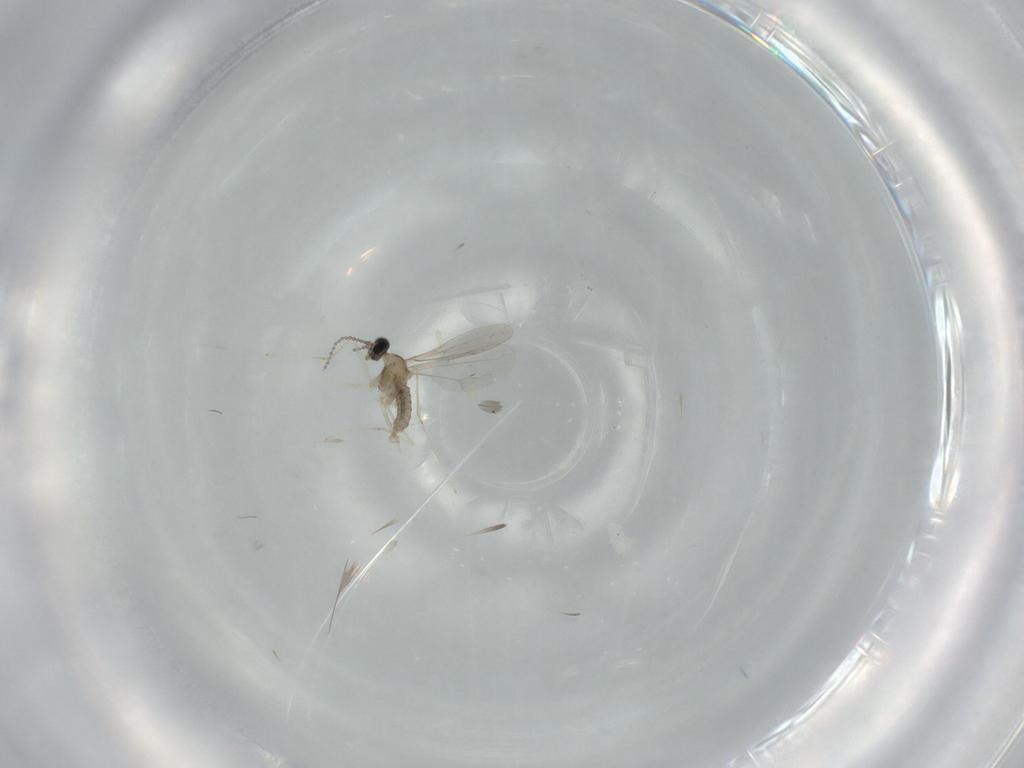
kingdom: Animalia
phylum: Arthropoda
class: Insecta
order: Diptera
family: Cecidomyiidae
